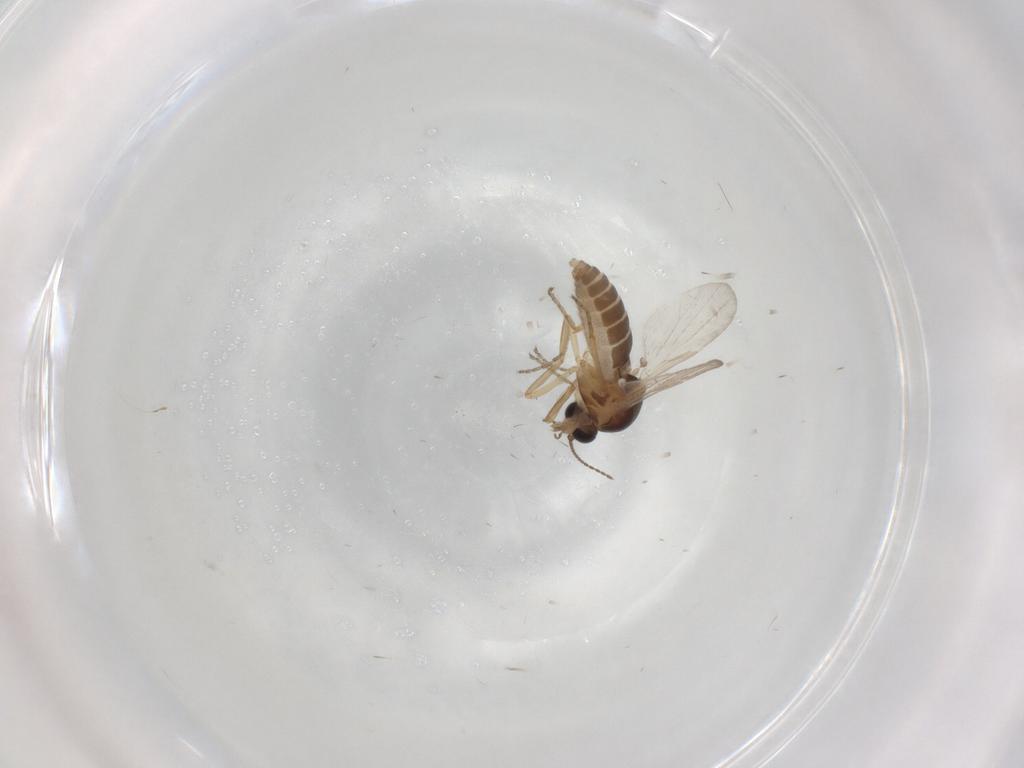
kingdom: Animalia
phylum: Arthropoda
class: Insecta
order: Diptera
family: Ceratopogonidae
